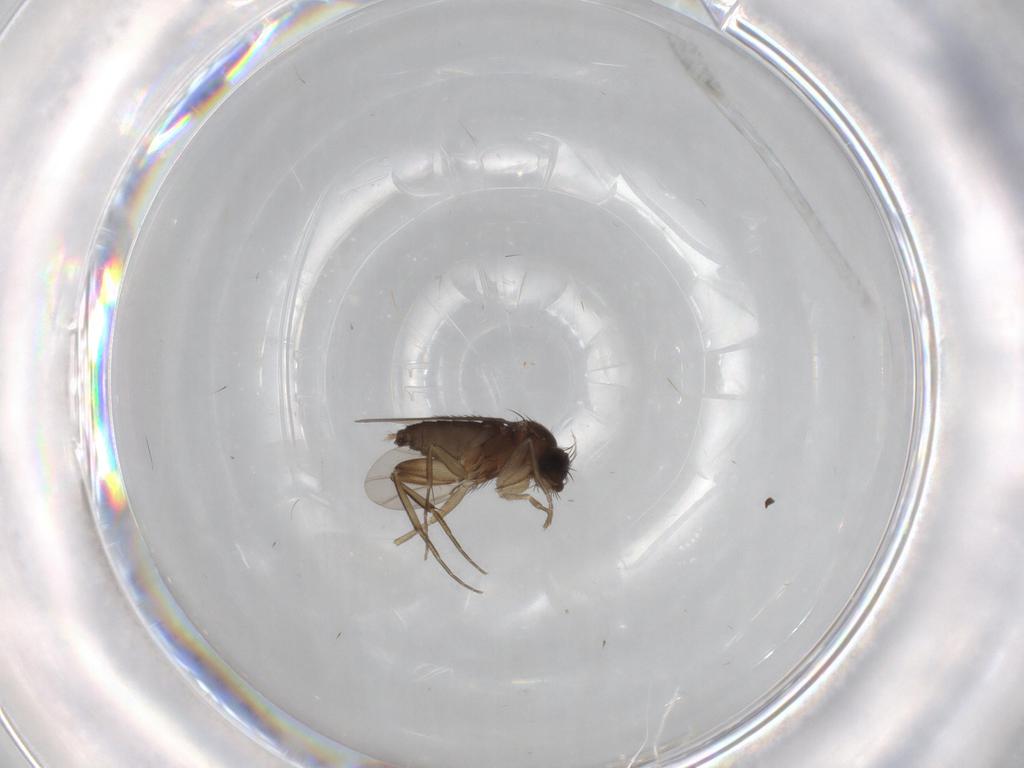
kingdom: Animalia
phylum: Arthropoda
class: Insecta
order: Diptera
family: Phoridae
